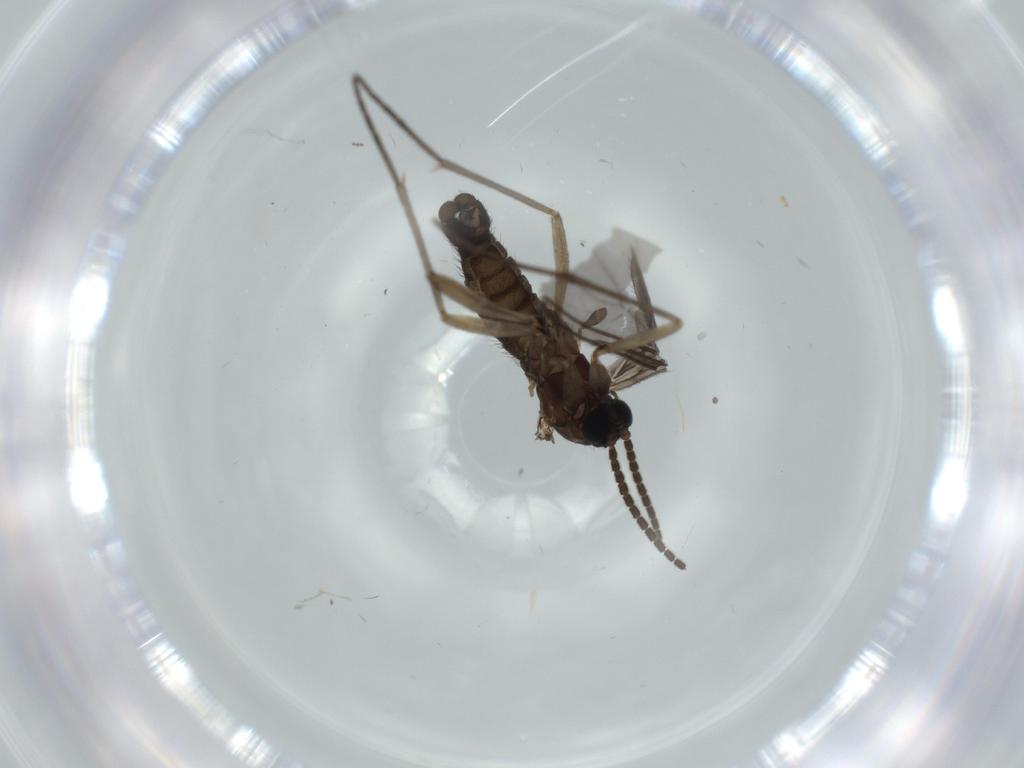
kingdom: Animalia
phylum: Arthropoda
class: Insecta
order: Diptera
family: Sciaridae
